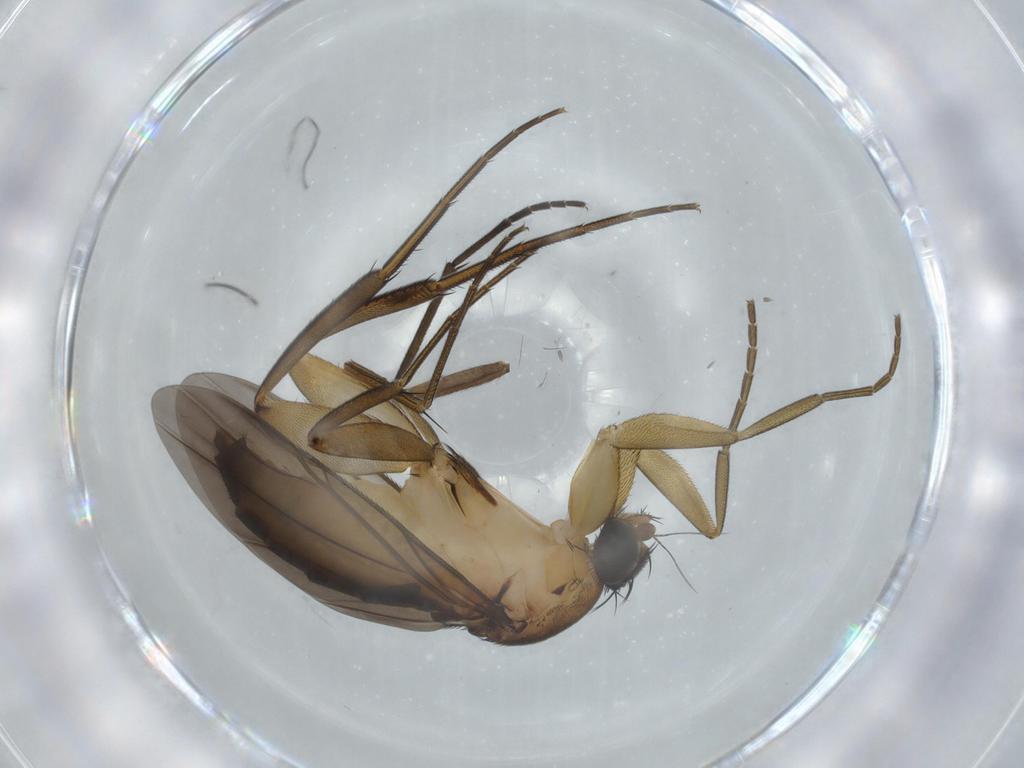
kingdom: Animalia
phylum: Arthropoda
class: Insecta
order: Diptera
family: Phoridae
